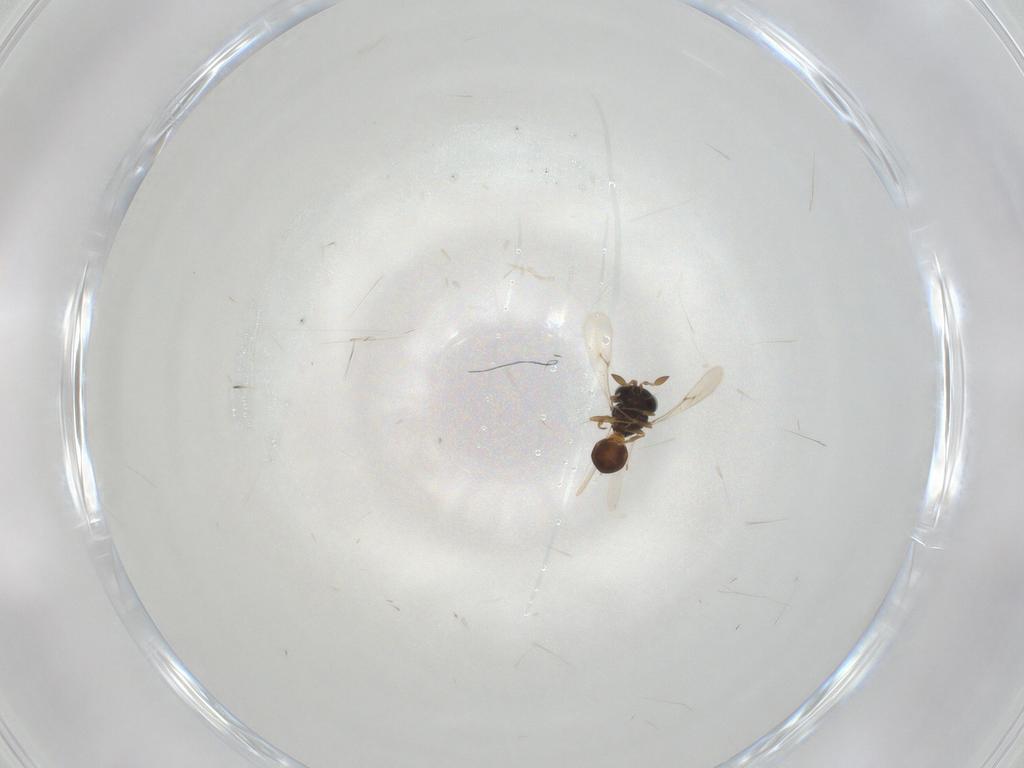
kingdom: Animalia
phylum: Arthropoda
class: Insecta
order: Hymenoptera
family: Scelionidae
